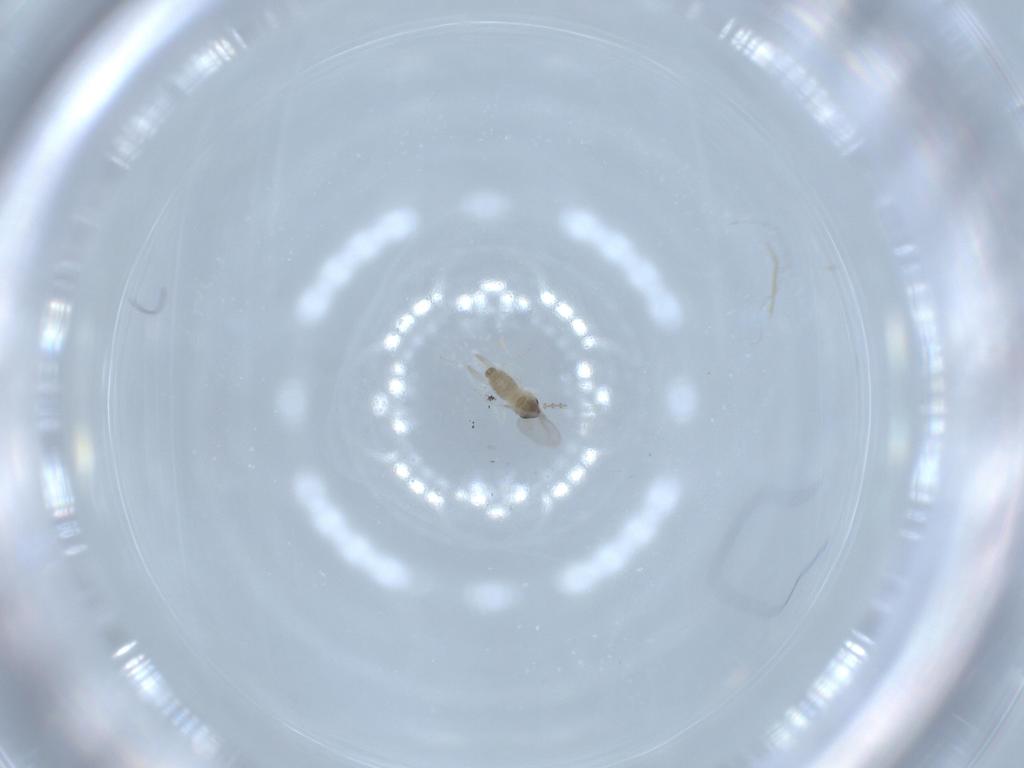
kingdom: Animalia
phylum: Arthropoda
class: Insecta
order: Diptera
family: Cecidomyiidae
